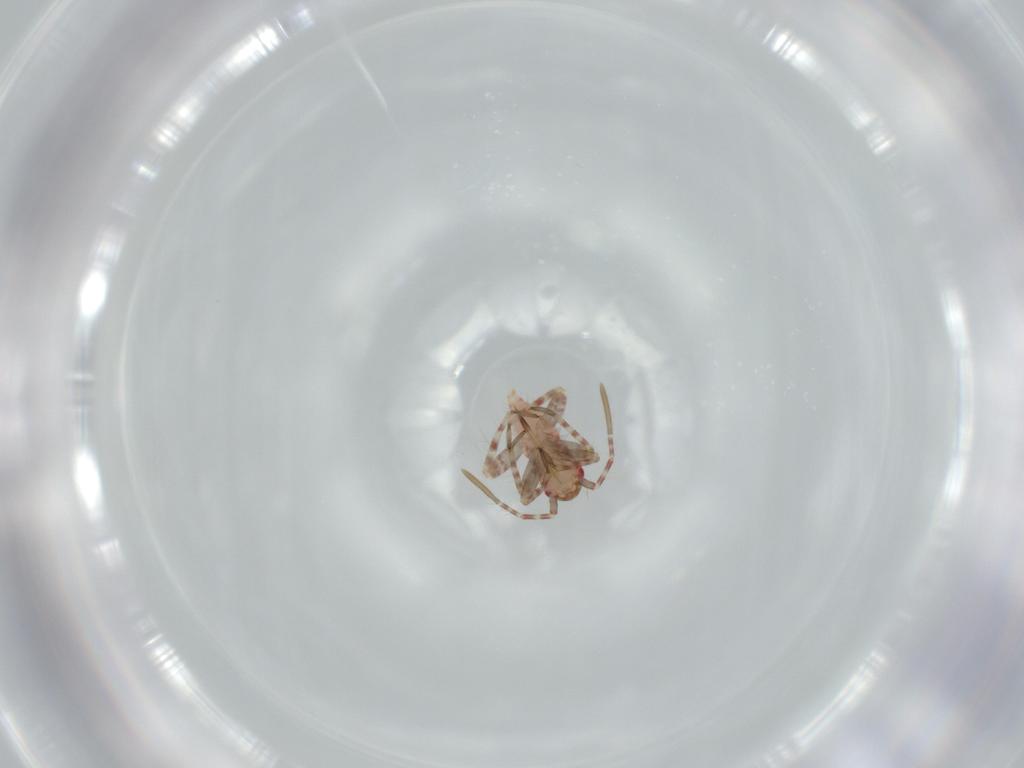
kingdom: Animalia
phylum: Arthropoda
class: Insecta
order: Hemiptera
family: Miridae
